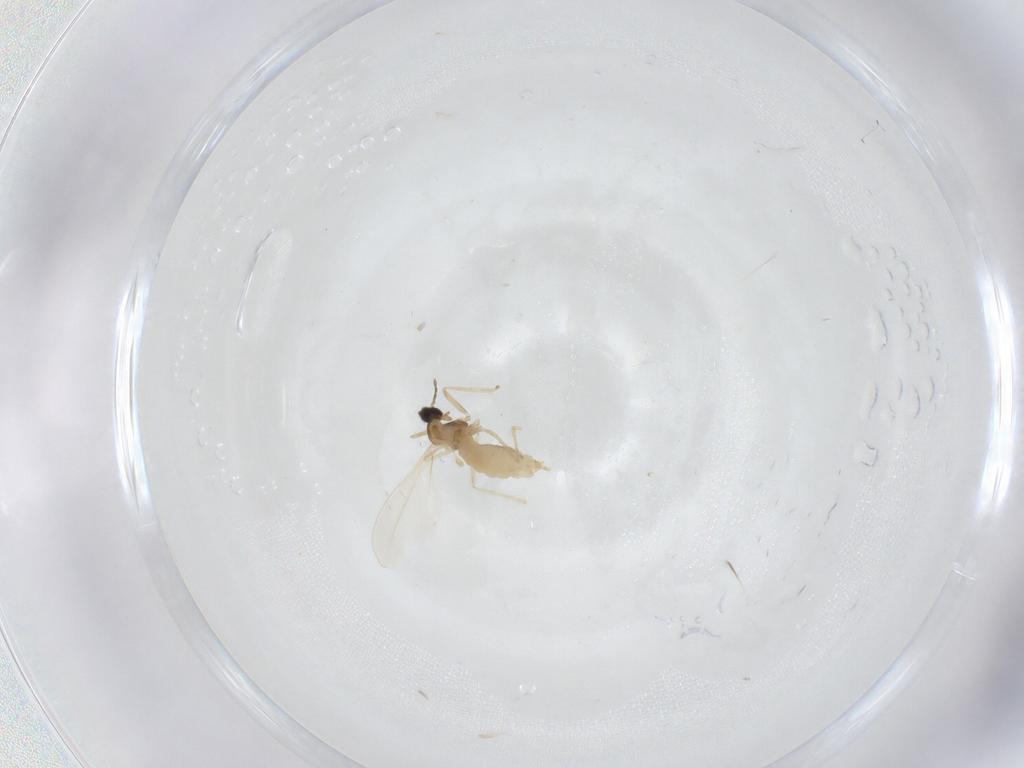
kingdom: Animalia
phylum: Arthropoda
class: Insecta
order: Diptera
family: Cecidomyiidae
